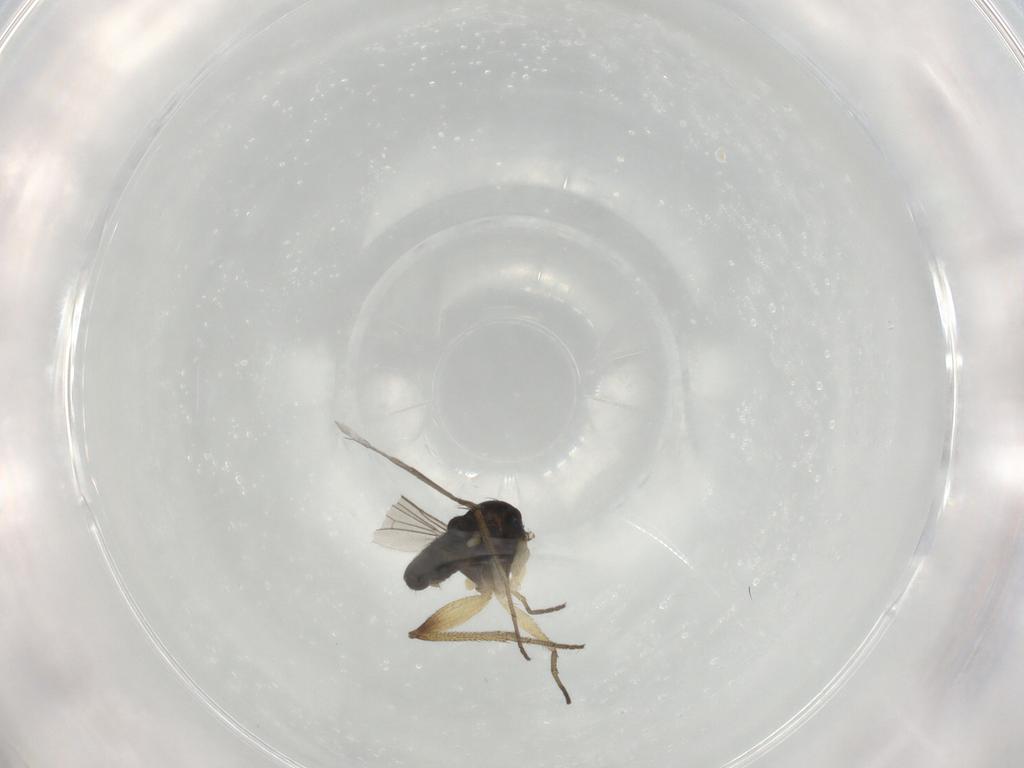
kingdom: Animalia
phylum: Arthropoda
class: Insecta
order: Diptera
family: Dolichopodidae
